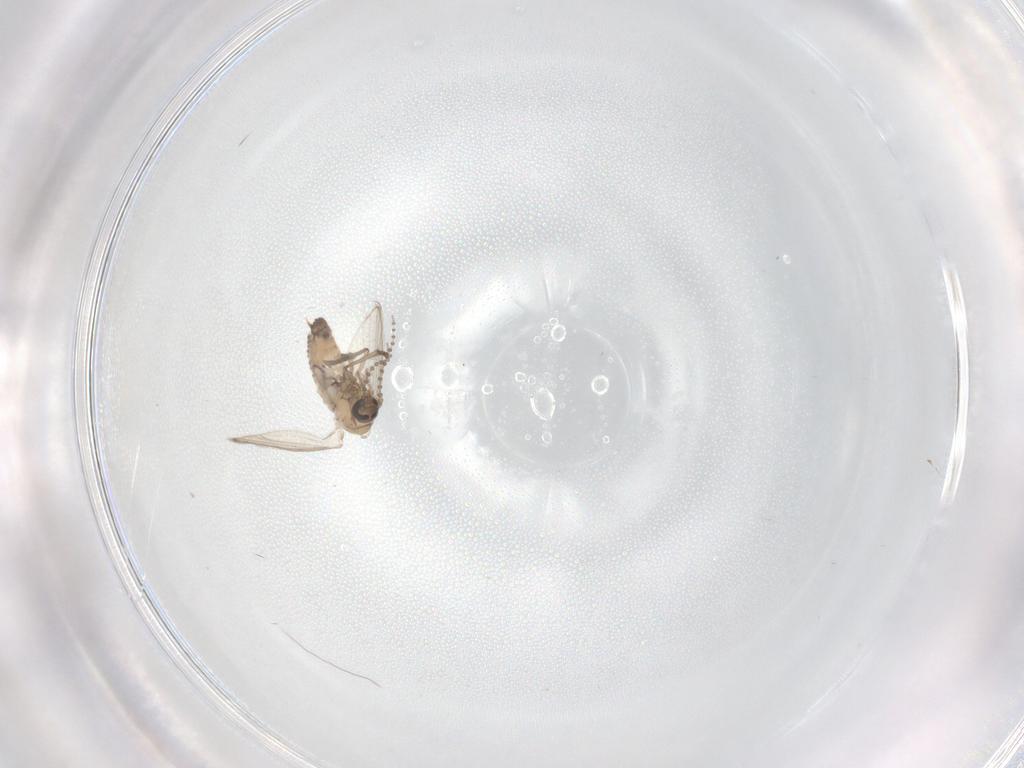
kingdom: Animalia
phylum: Arthropoda
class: Insecta
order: Diptera
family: Psychodidae
